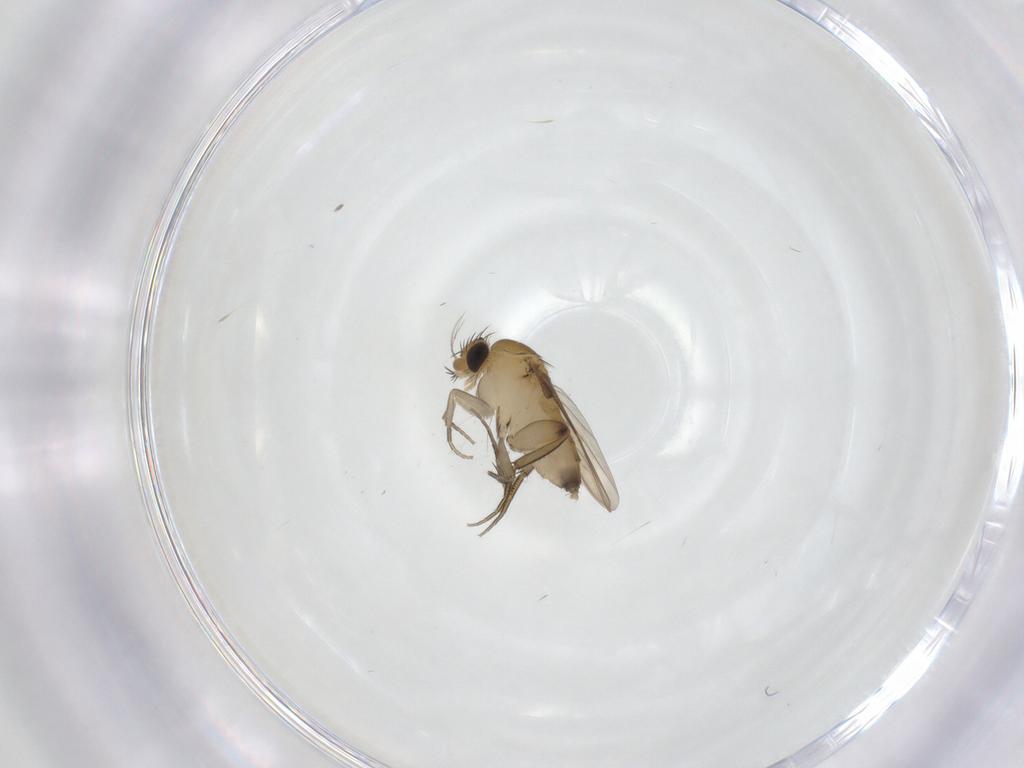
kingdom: Animalia
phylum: Arthropoda
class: Insecta
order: Diptera
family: Phoridae
